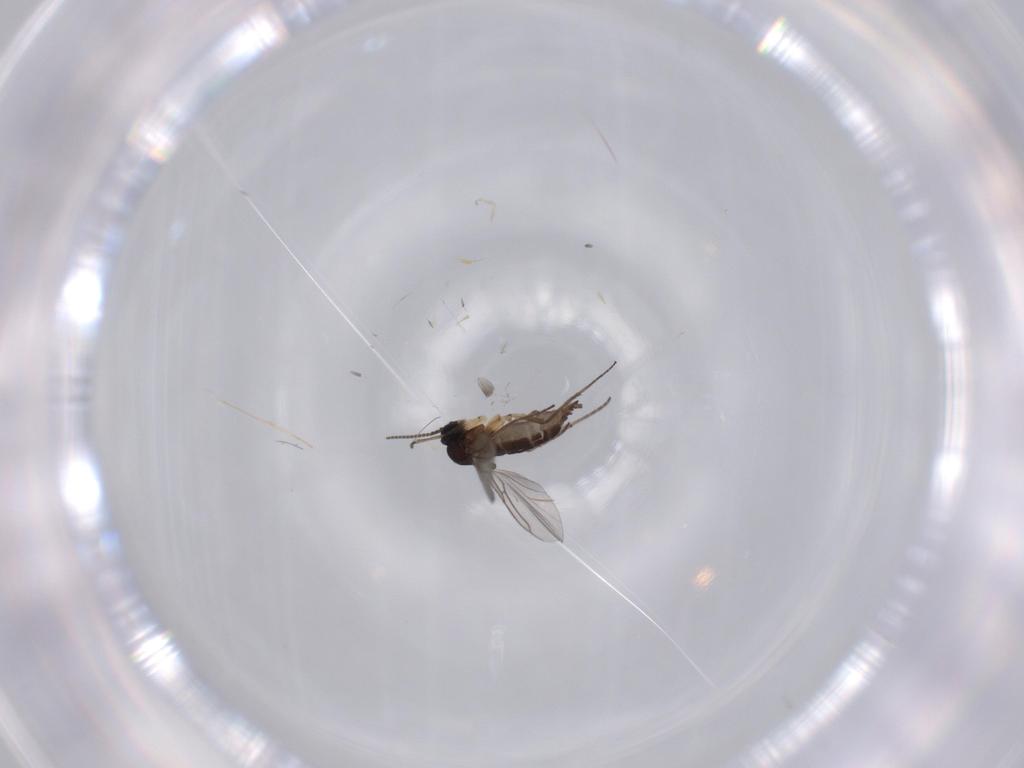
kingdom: Animalia
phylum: Arthropoda
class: Insecta
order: Diptera
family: Sciaridae
